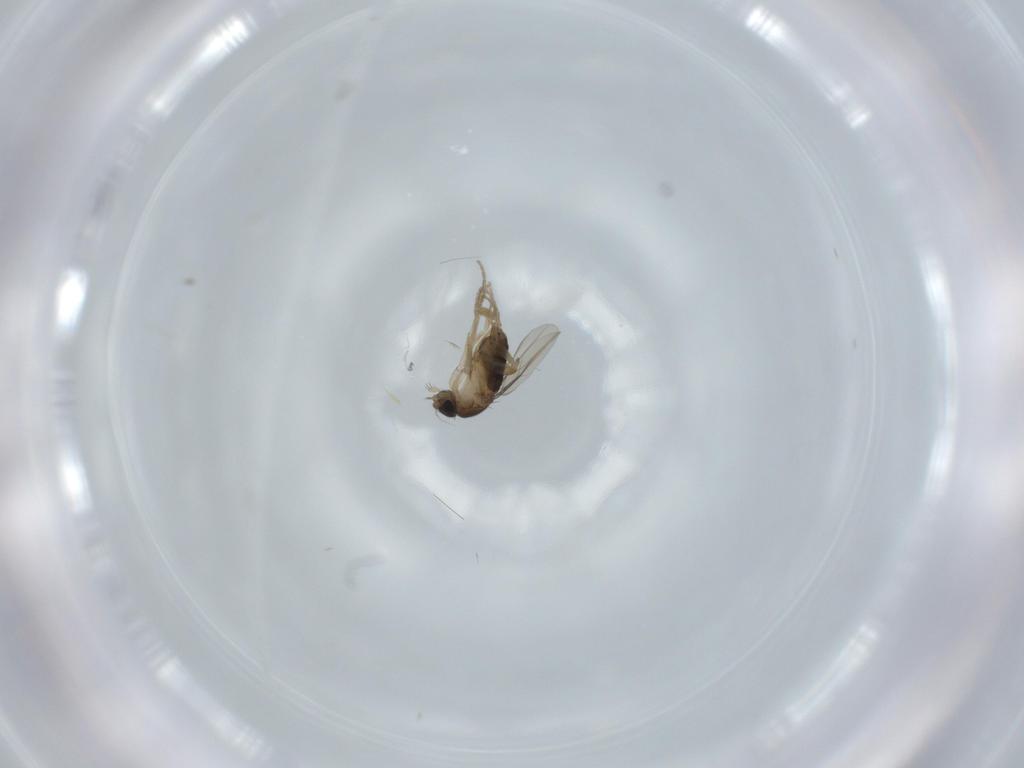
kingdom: Animalia
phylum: Arthropoda
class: Insecta
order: Diptera
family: Phoridae
